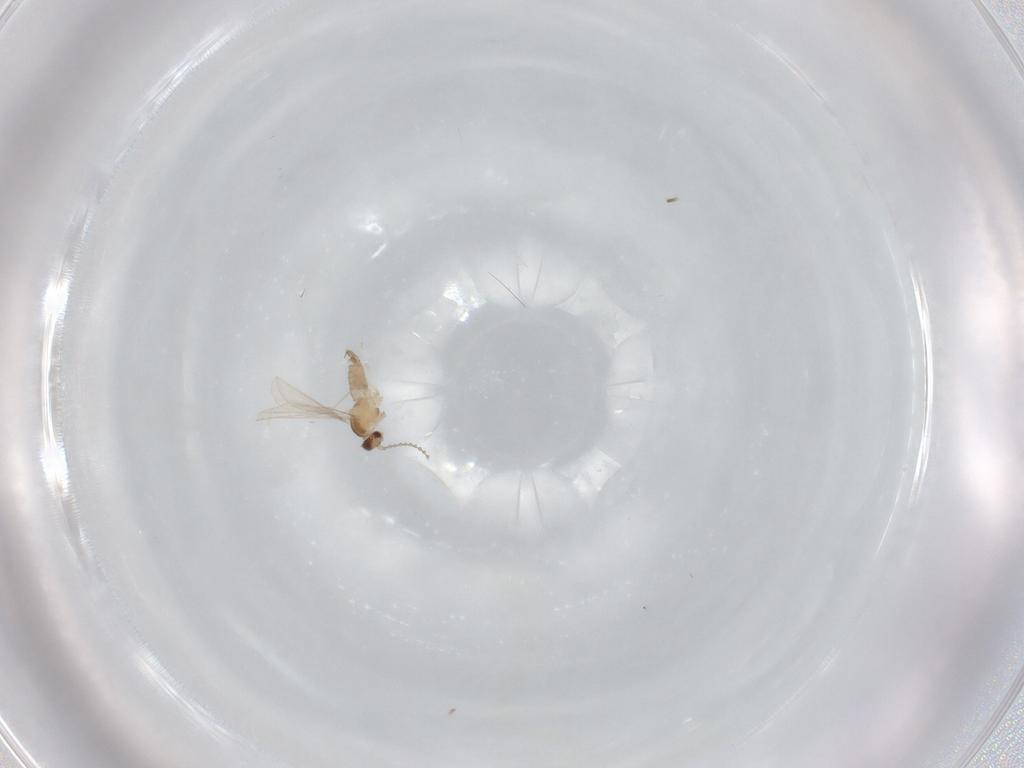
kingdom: Animalia
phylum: Arthropoda
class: Insecta
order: Diptera
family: Cecidomyiidae
